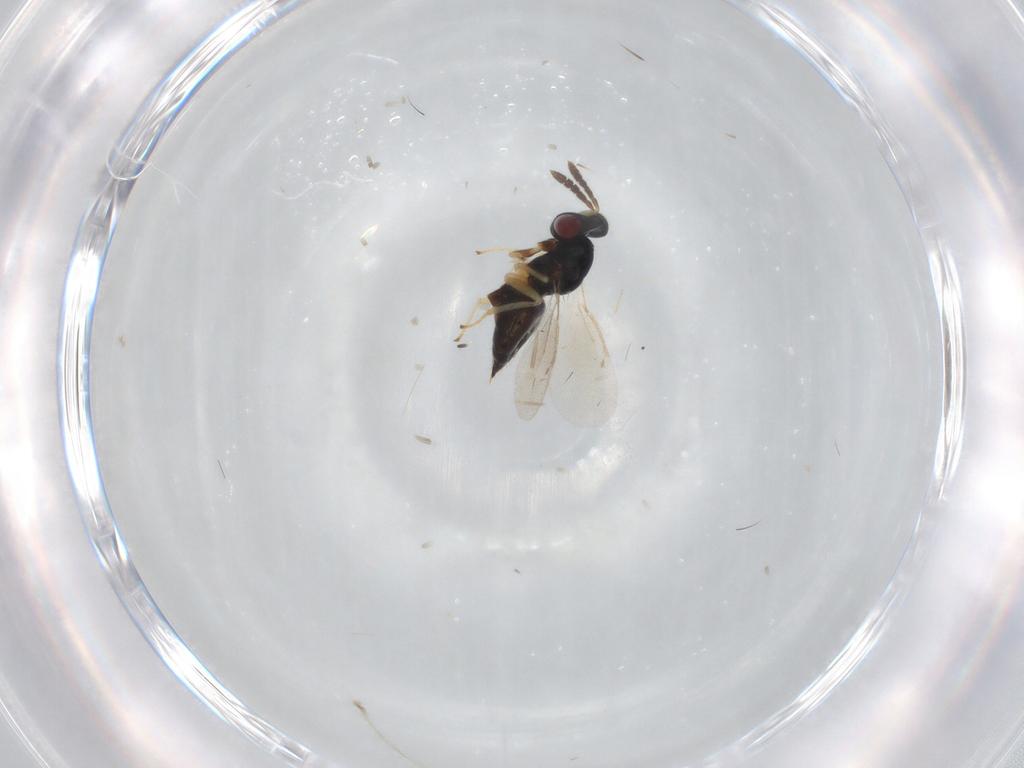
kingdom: Animalia
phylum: Arthropoda
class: Insecta
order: Hymenoptera
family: Eulophidae
